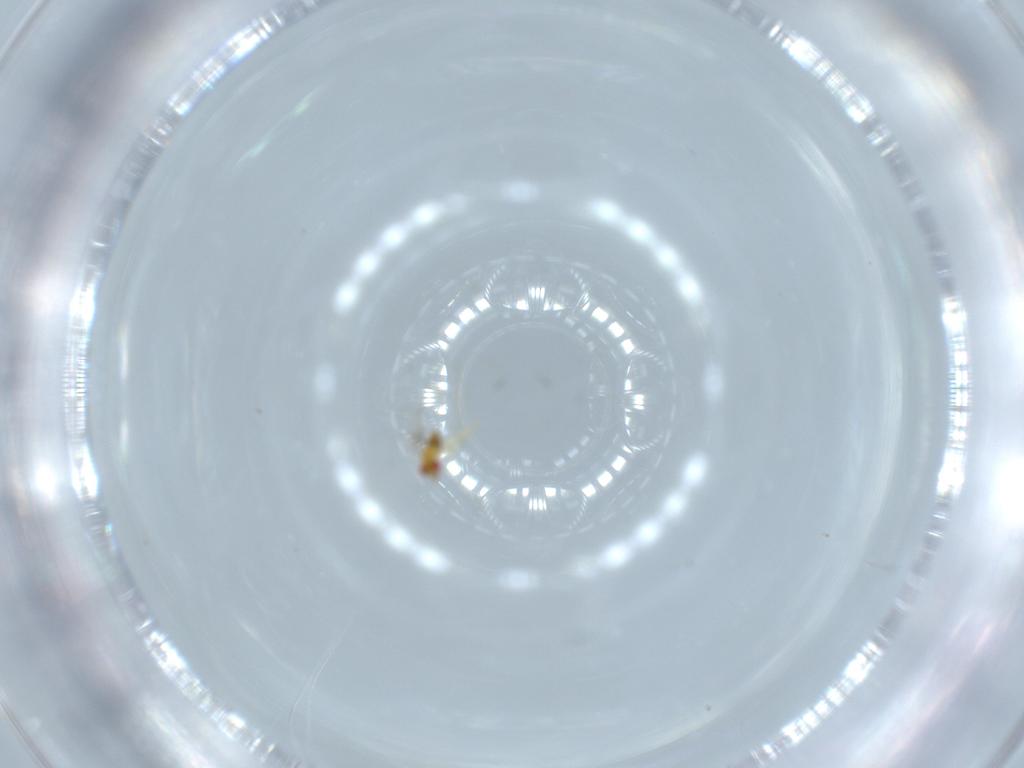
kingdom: Animalia
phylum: Arthropoda
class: Insecta
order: Hymenoptera
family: Trichogrammatidae
